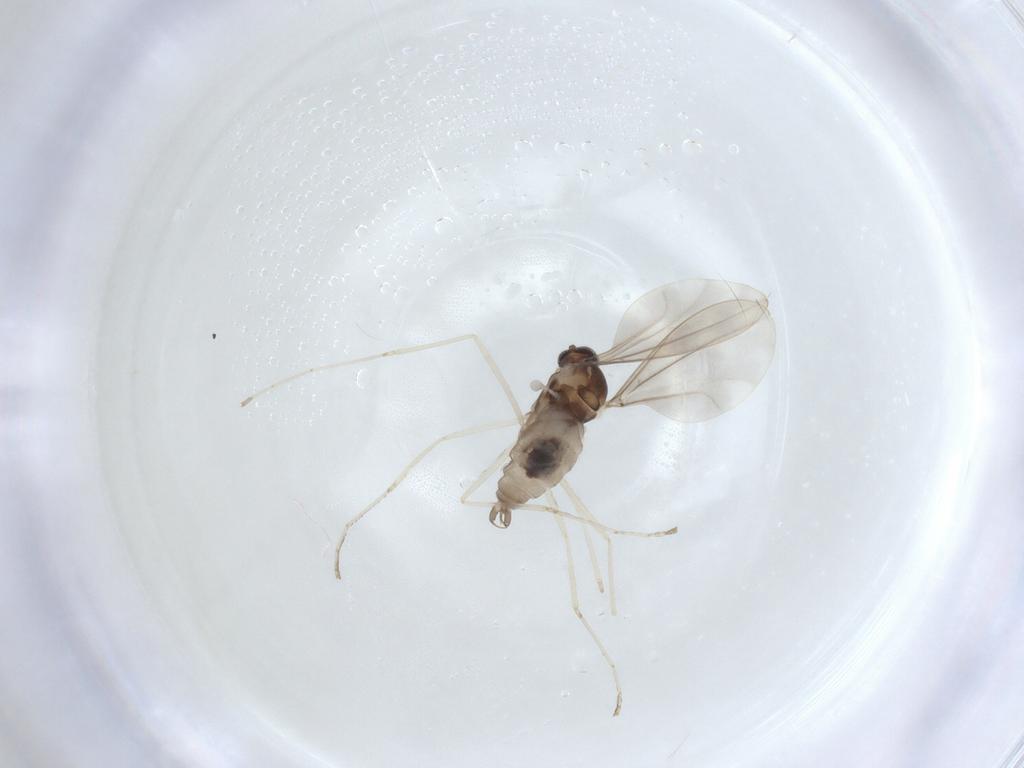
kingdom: Animalia
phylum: Arthropoda
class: Insecta
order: Diptera
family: Cecidomyiidae
